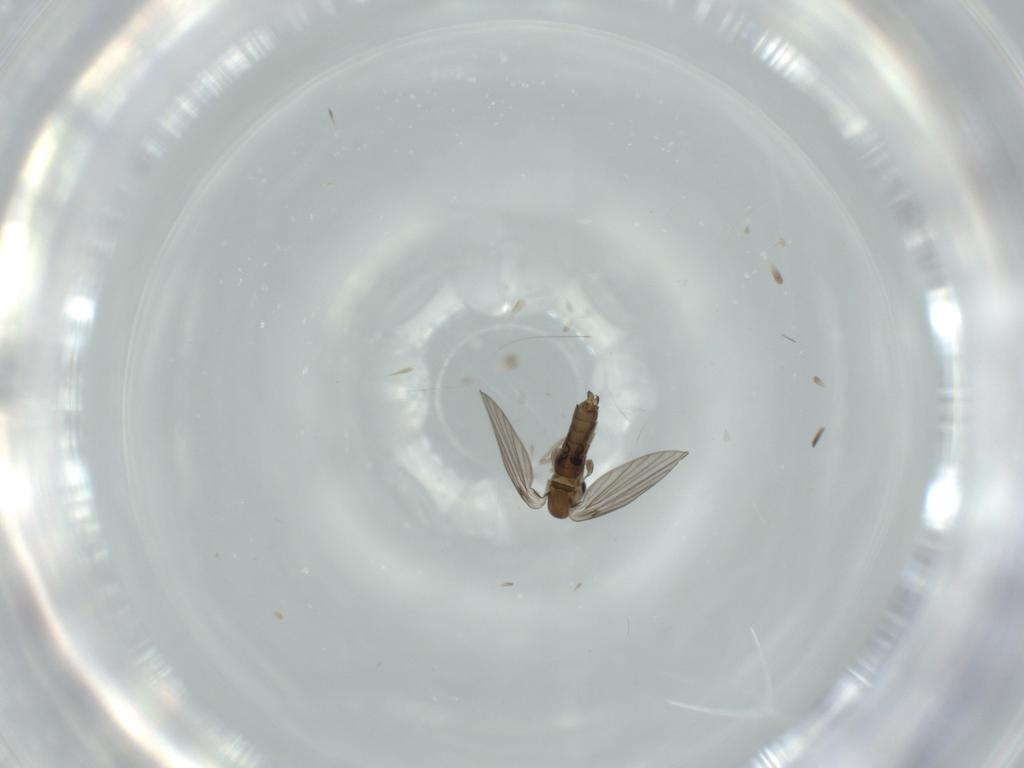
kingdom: Animalia
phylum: Arthropoda
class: Insecta
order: Diptera
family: Psychodidae
